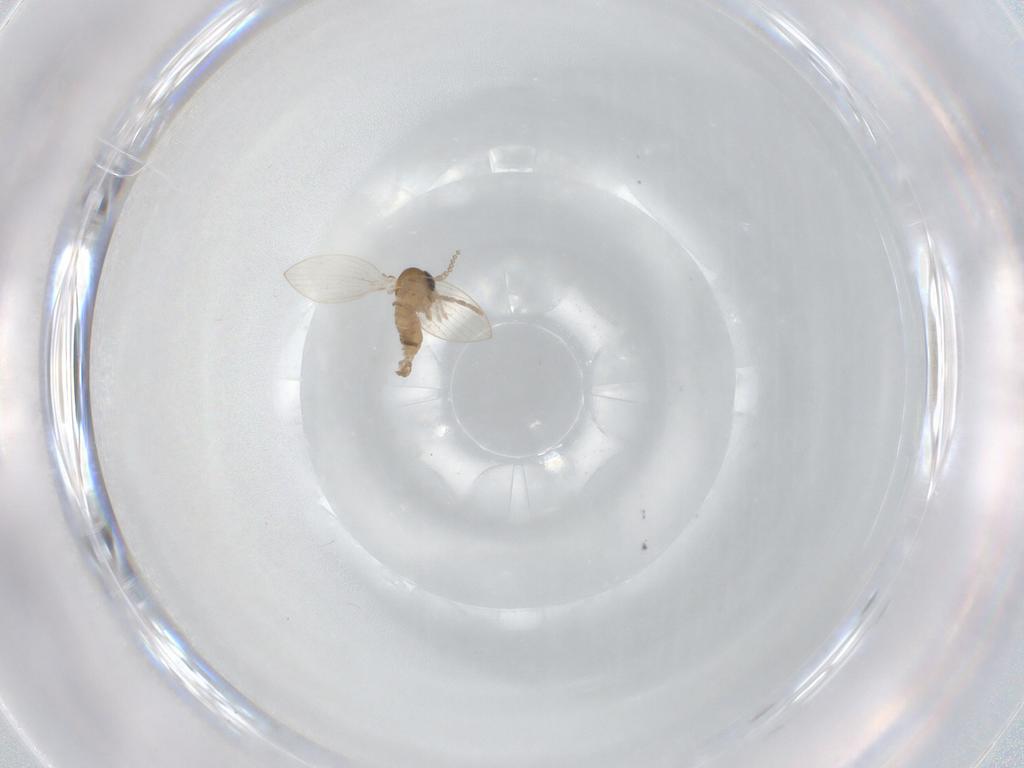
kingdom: Animalia
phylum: Arthropoda
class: Insecta
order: Diptera
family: Psychodidae
